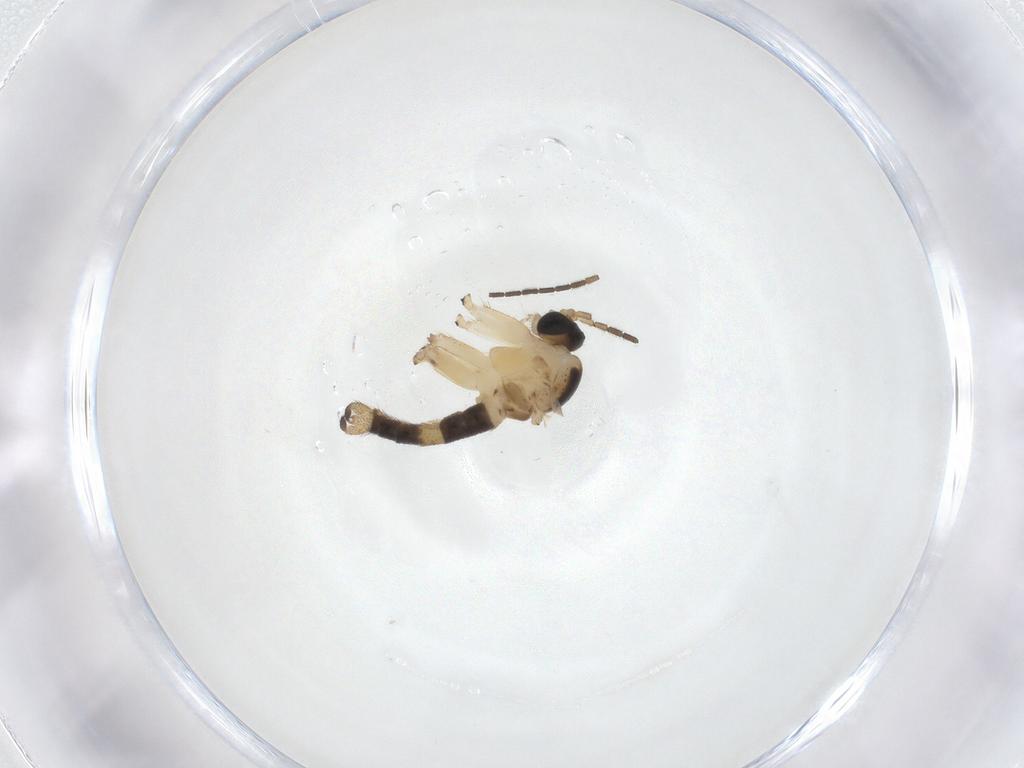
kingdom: Animalia
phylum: Arthropoda
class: Insecta
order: Diptera
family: Sciaridae
